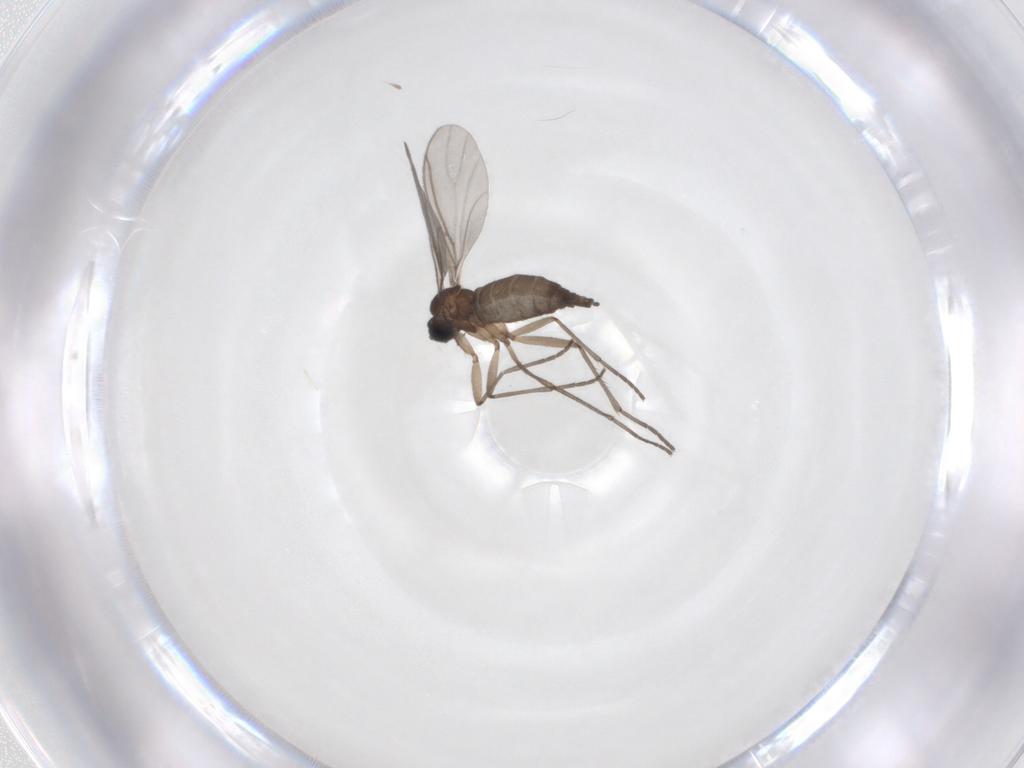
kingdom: Animalia
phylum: Arthropoda
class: Insecta
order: Diptera
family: Sciaridae
